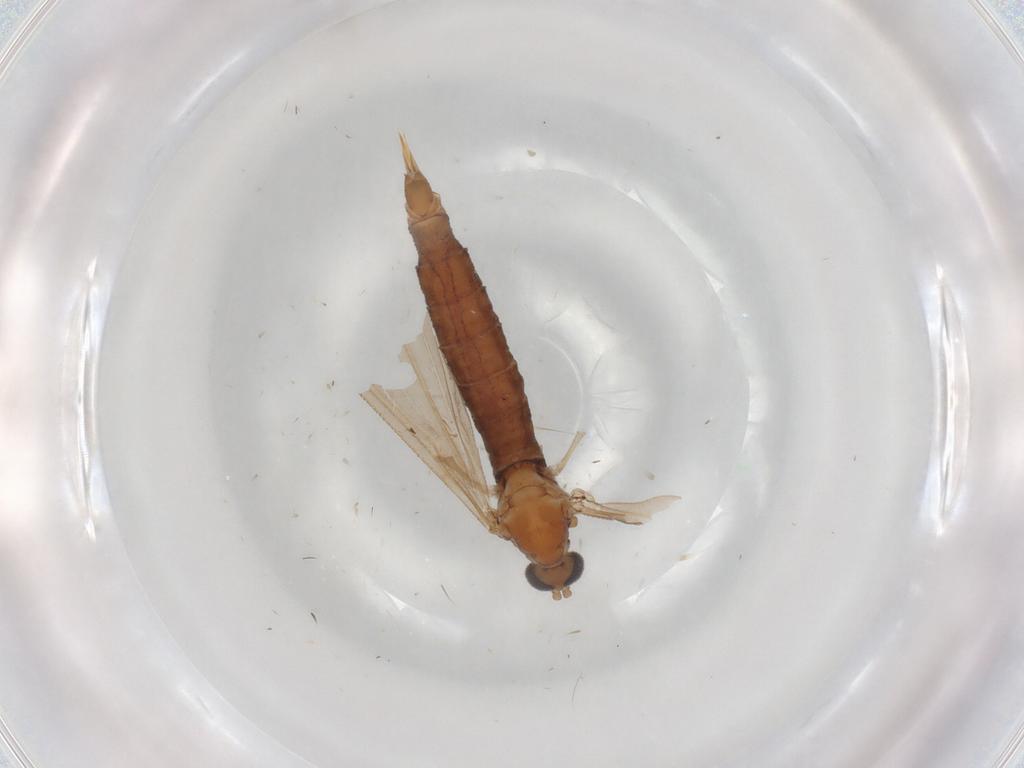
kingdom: Animalia
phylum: Arthropoda
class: Insecta
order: Diptera
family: Limoniidae
